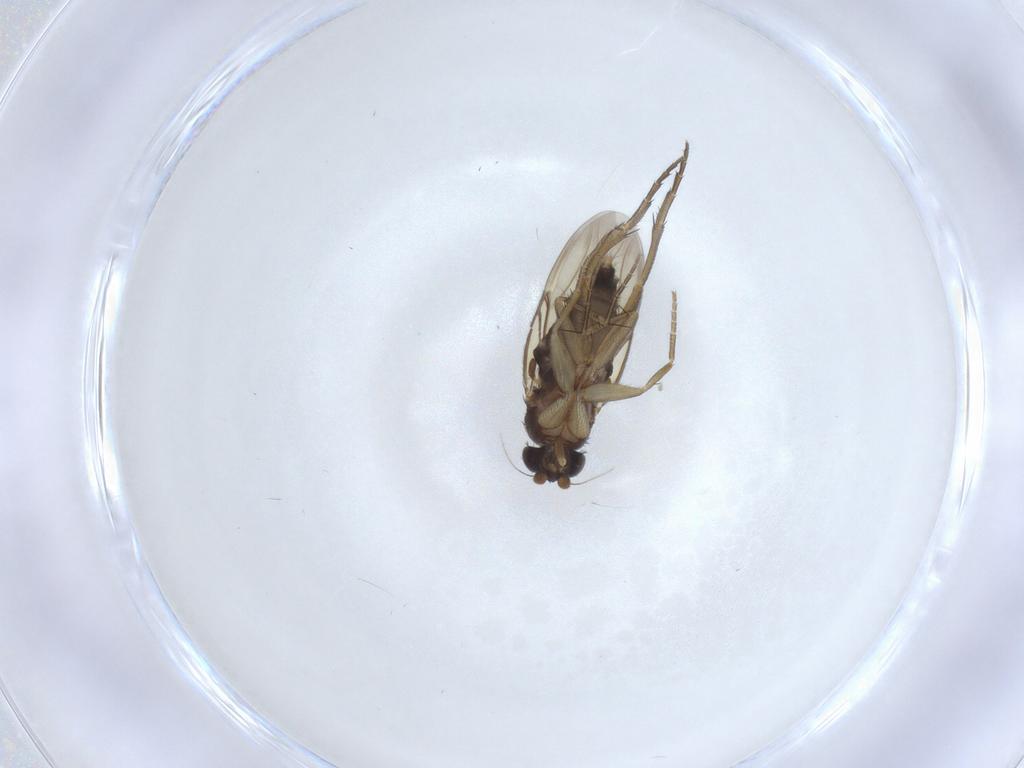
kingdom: Animalia
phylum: Arthropoda
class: Insecta
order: Diptera
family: Phoridae
